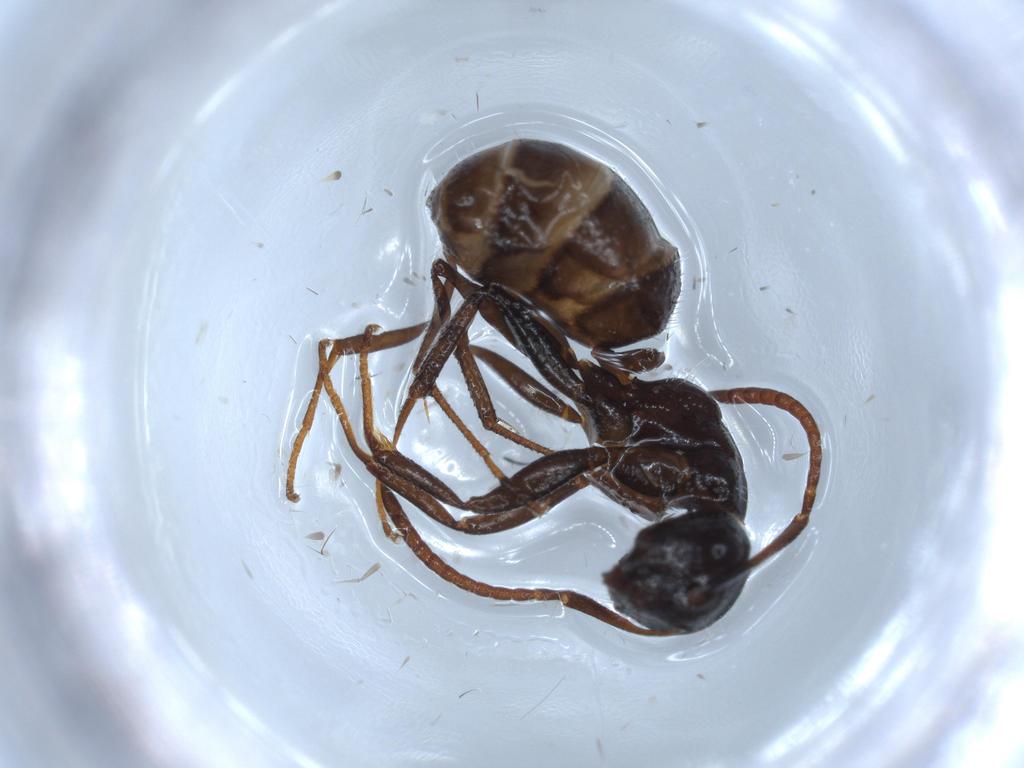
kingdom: Animalia
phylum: Arthropoda
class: Insecta
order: Hymenoptera
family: Formicidae
